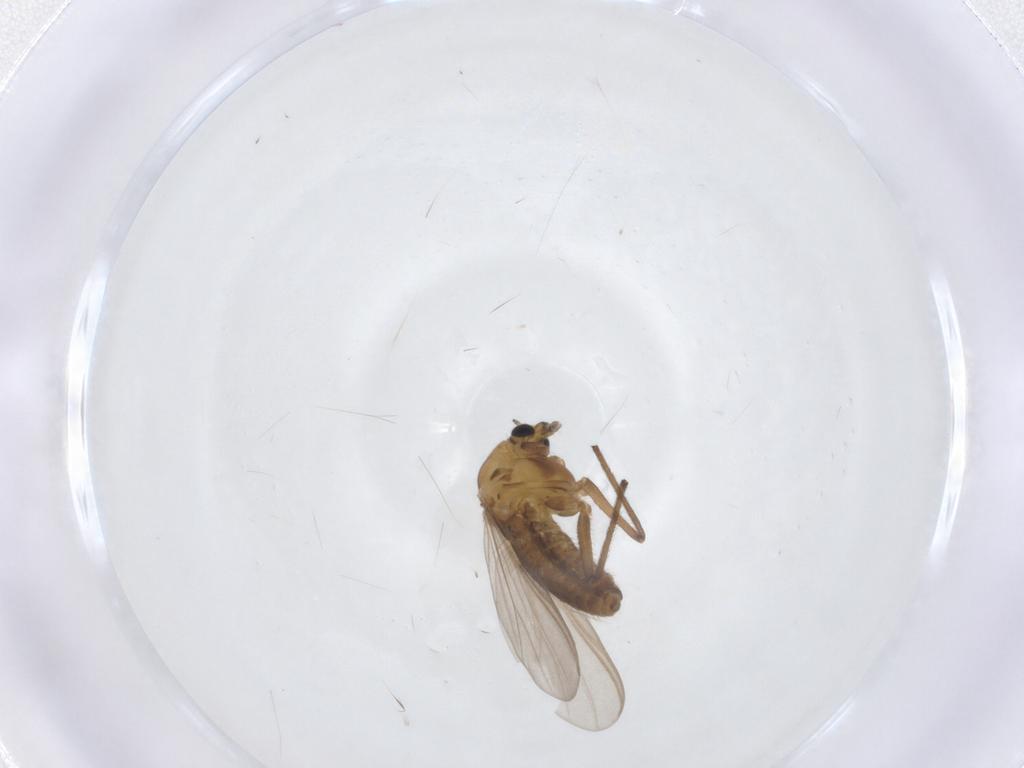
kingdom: Animalia
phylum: Arthropoda
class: Insecta
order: Diptera
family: Chironomidae
